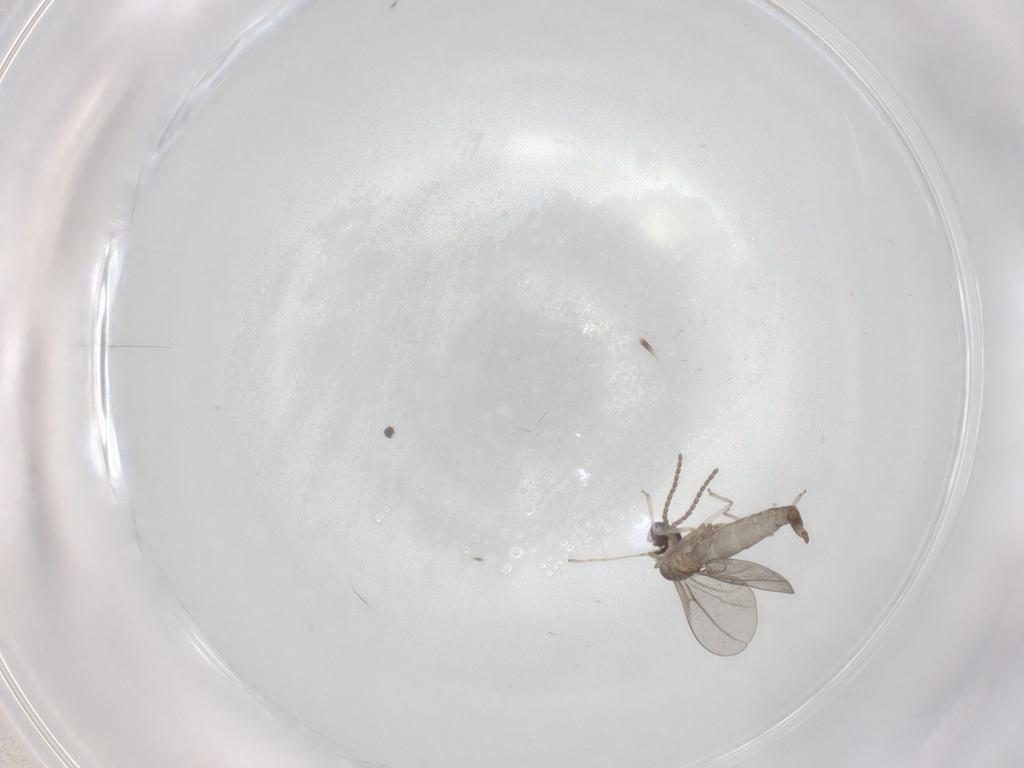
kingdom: Animalia
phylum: Arthropoda
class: Insecta
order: Diptera
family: Cecidomyiidae
